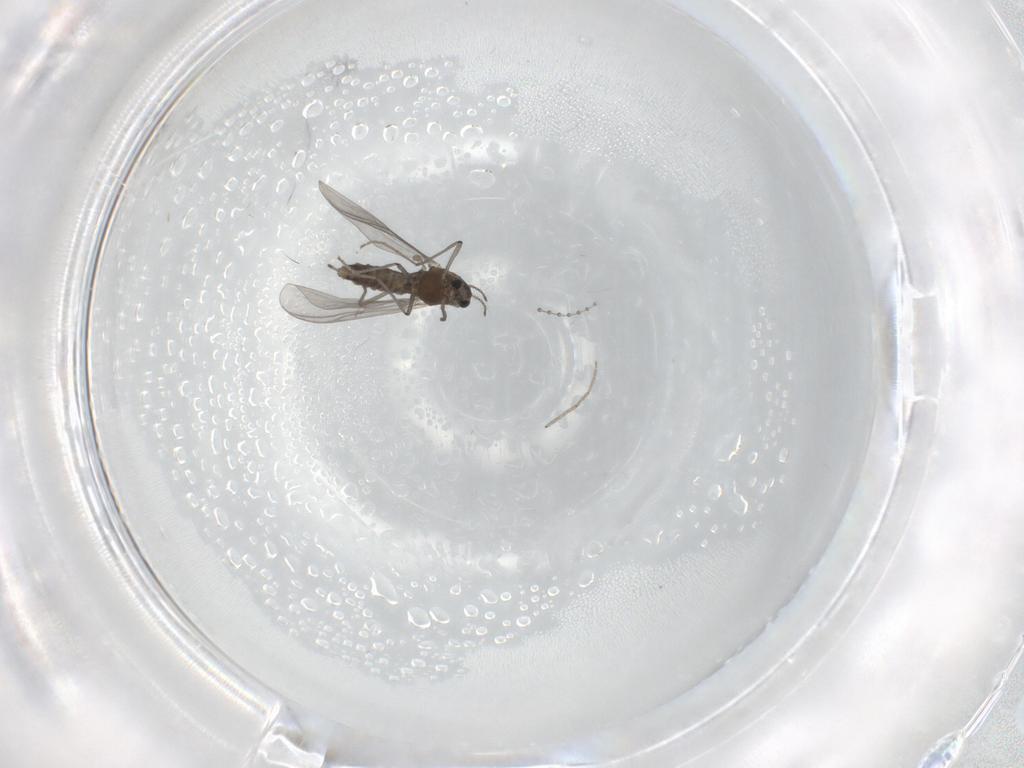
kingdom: Animalia
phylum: Arthropoda
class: Insecta
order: Diptera
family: Chironomidae
